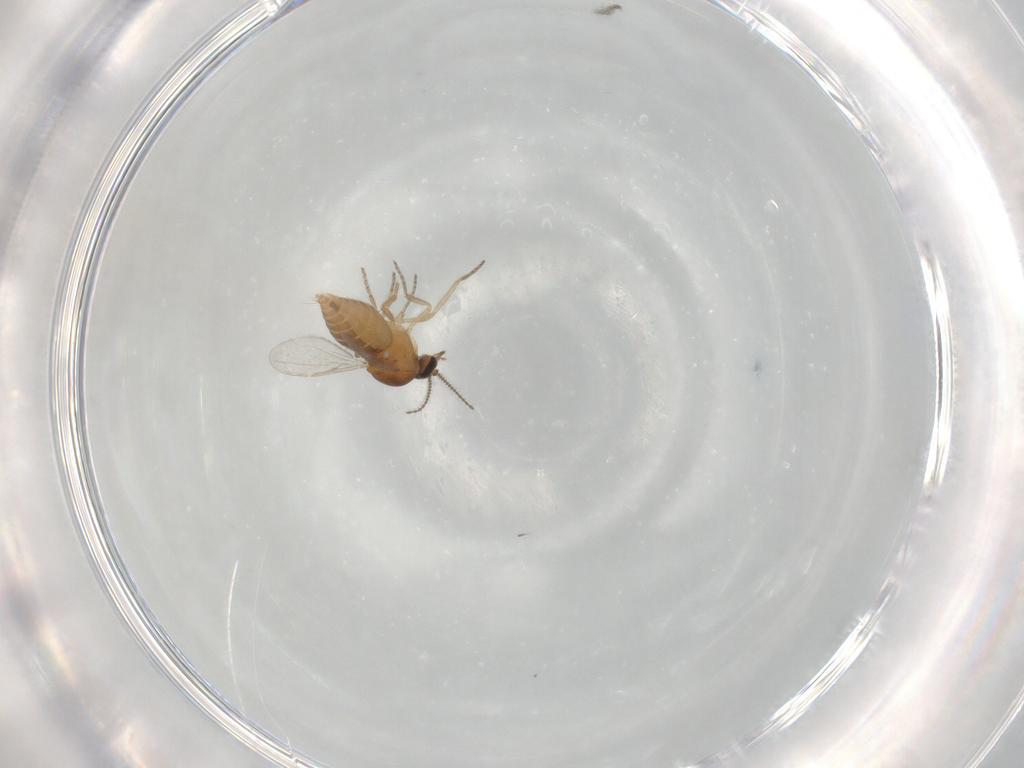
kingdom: Animalia
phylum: Arthropoda
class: Insecta
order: Diptera
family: Ceratopogonidae
